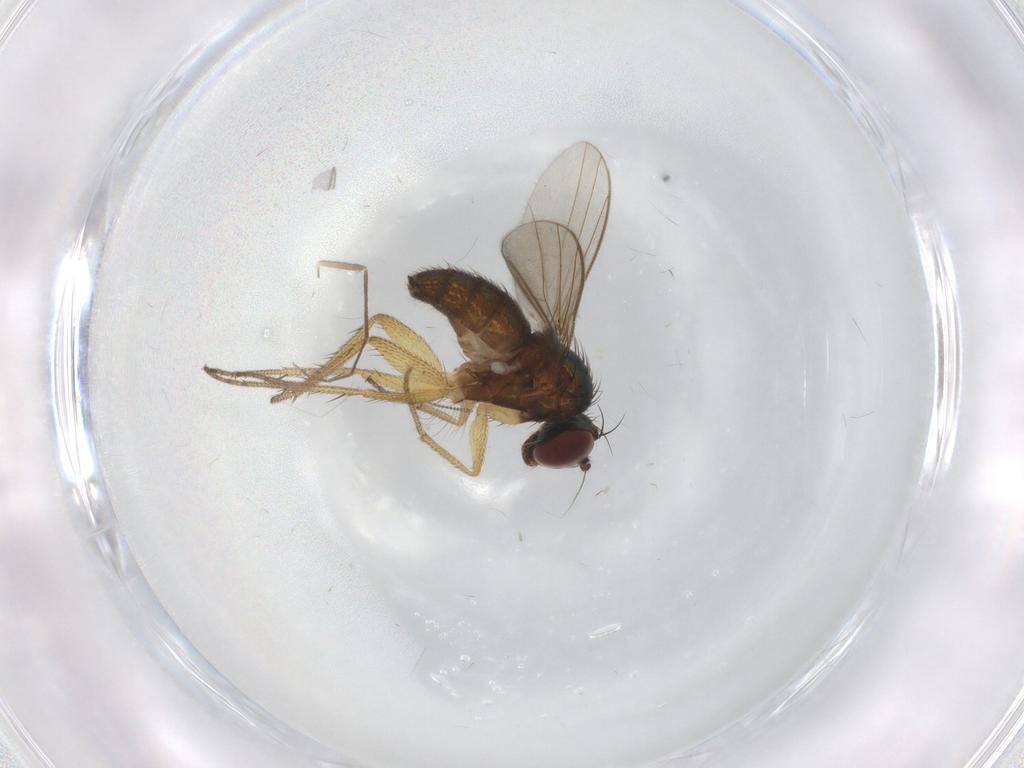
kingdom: Animalia
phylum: Arthropoda
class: Insecta
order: Diptera
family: Dolichopodidae
